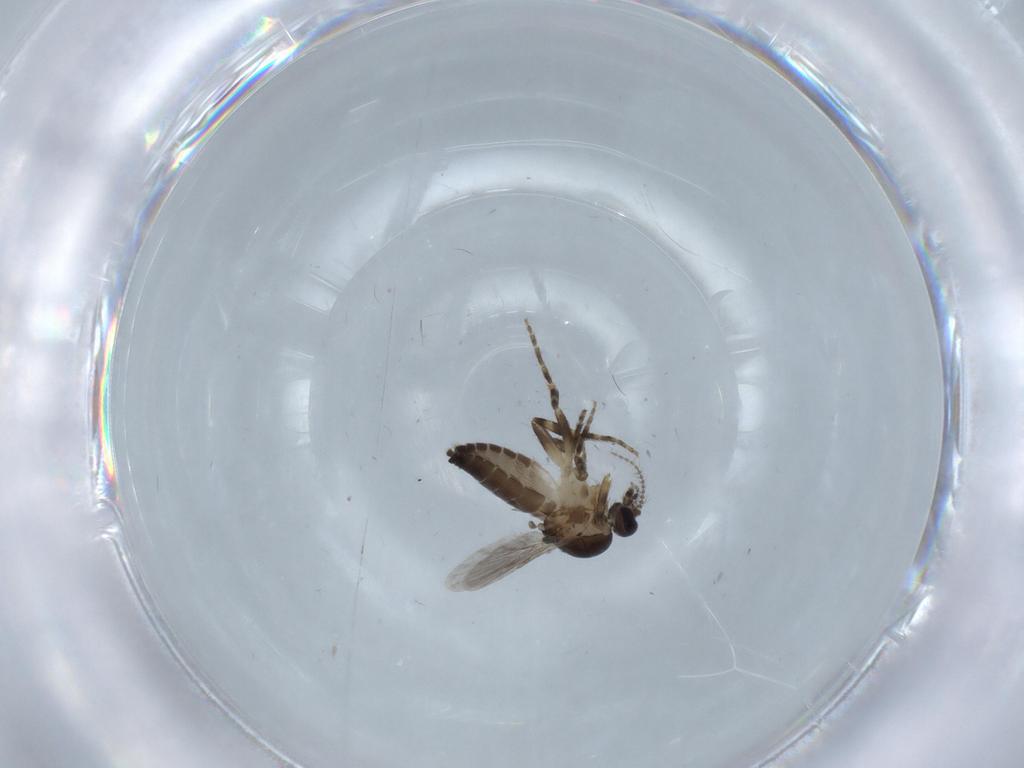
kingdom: Animalia
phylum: Arthropoda
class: Insecta
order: Diptera
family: Ceratopogonidae
